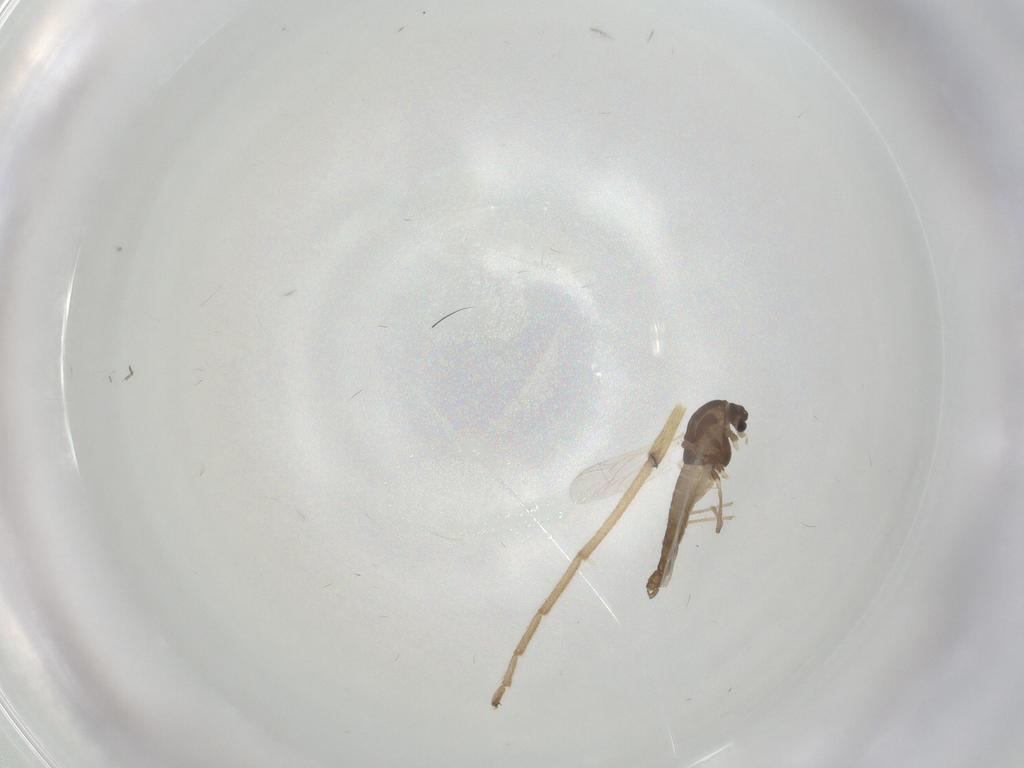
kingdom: Animalia
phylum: Arthropoda
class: Insecta
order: Diptera
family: Chironomidae
